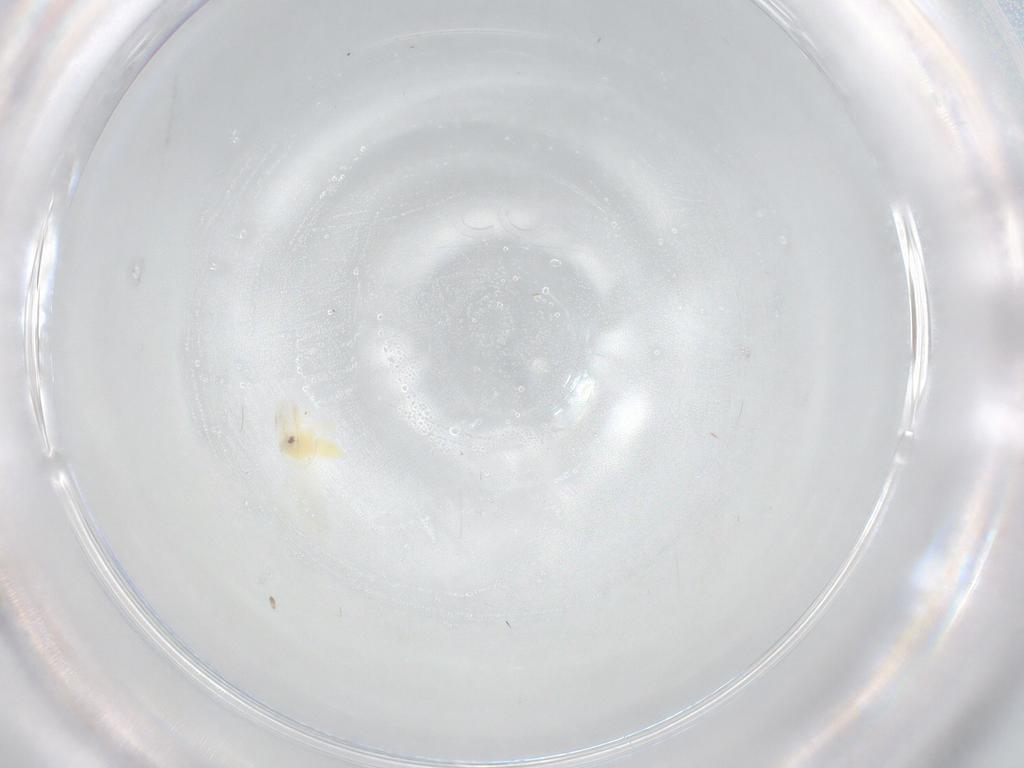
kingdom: Animalia
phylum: Arthropoda
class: Insecta
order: Hemiptera
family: Aleyrodidae
